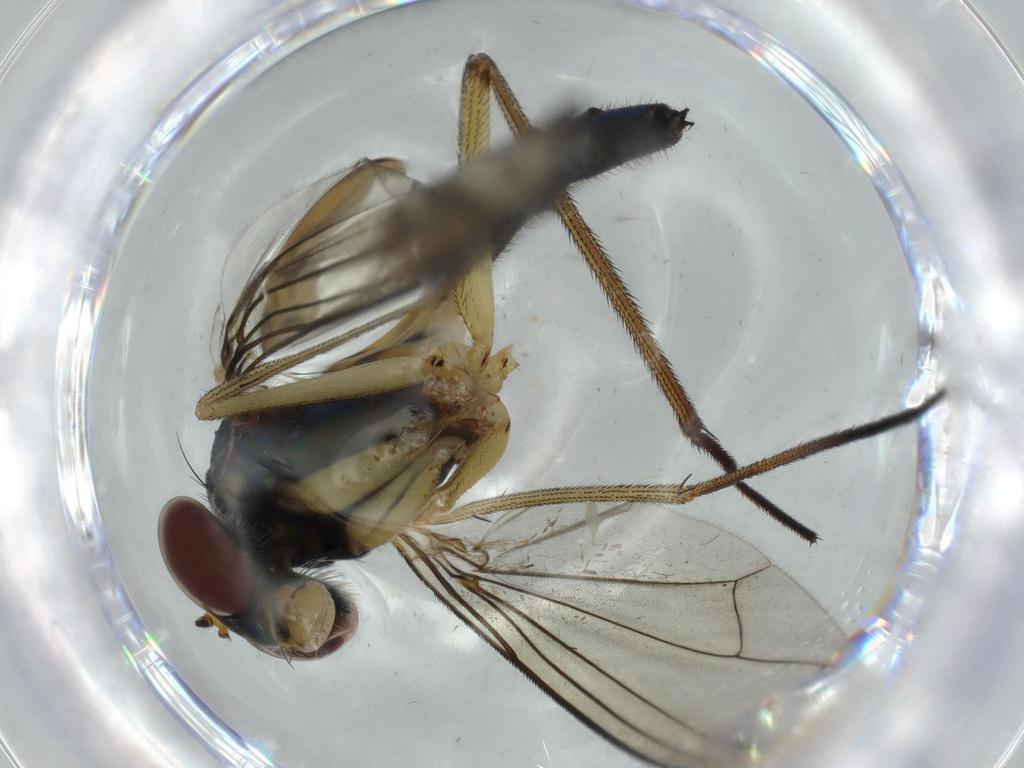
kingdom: Animalia
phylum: Arthropoda
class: Insecta
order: Diptera
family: Dolichopodidae
